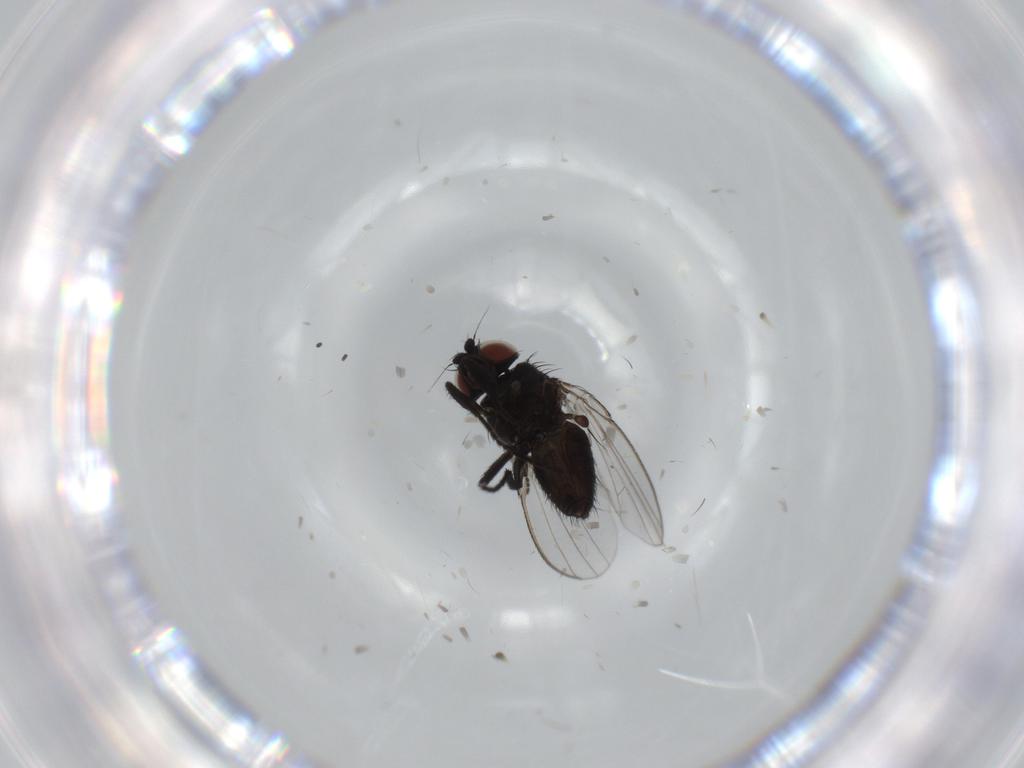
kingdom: Animalia
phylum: Arthropoda
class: Insecta
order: Diptera
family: Milichiidae
